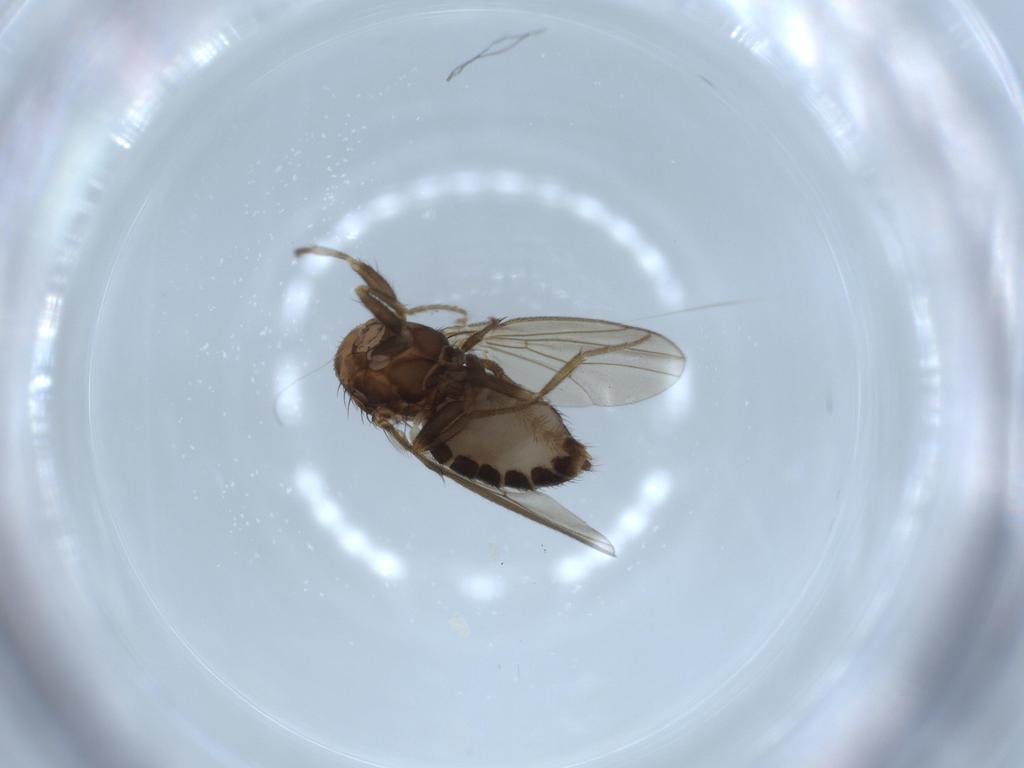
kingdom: Animalia
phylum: Arthropoda
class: Insecta
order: Diptera
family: Drosophilidae
